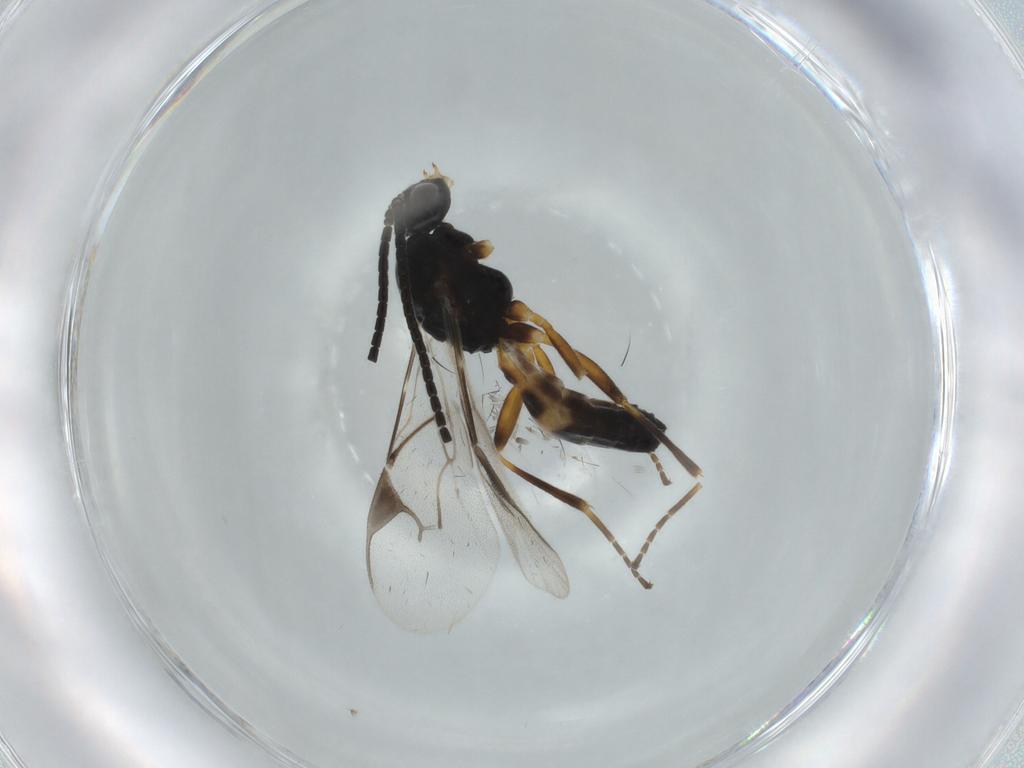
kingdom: Animalia
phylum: Arthropoda
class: Insecta
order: Hymenoptera
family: Braconidae
